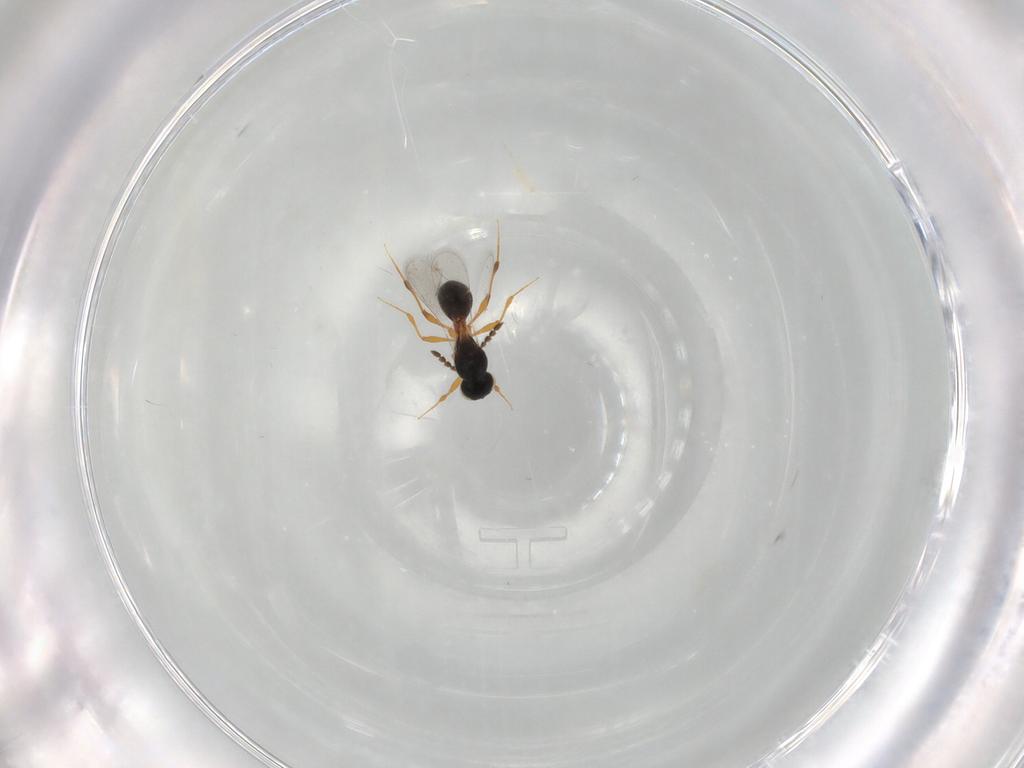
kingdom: Animalia
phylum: Arthropoda
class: Insecta
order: Hymenoptera
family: Platygastridae
